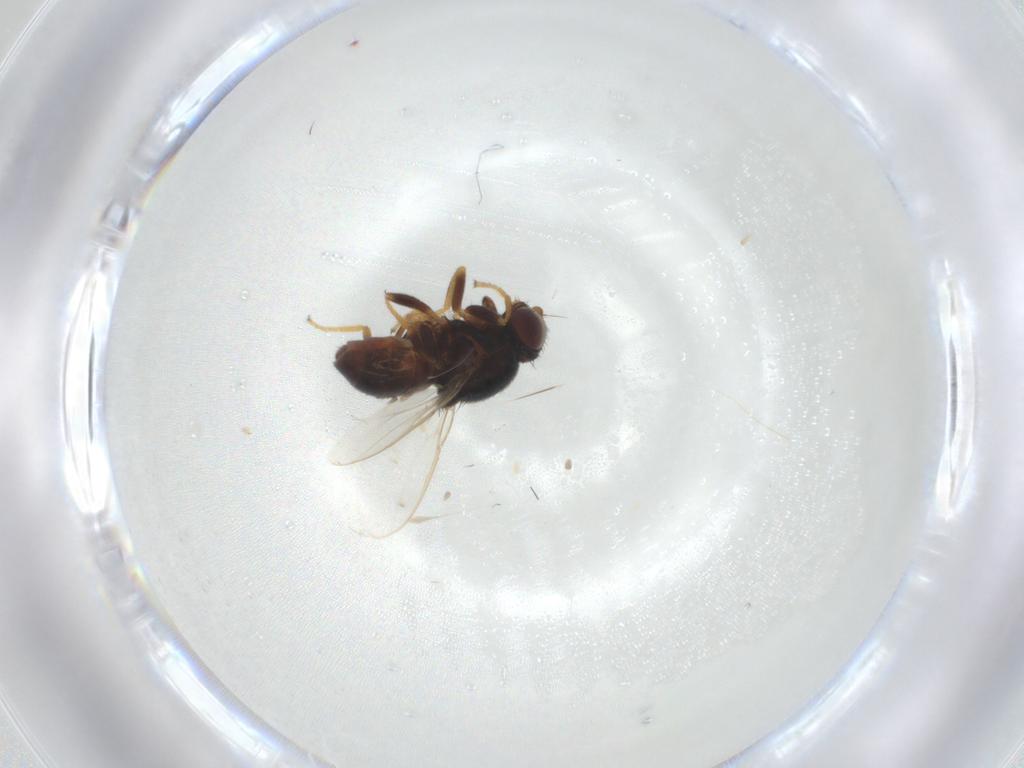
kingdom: Animalia
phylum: Arthropoda
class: Insecta
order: Diptera
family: Chloropidae
